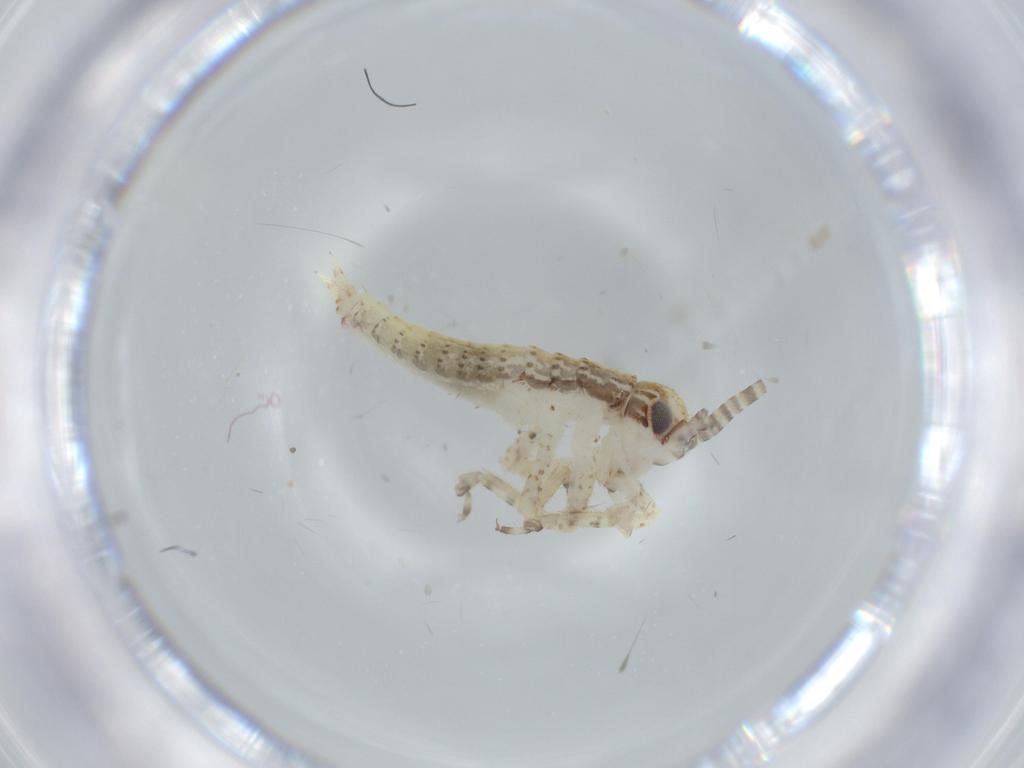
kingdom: Animalia
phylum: Arthropoda
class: Insecta
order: Orthoptera
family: Gryllidae
